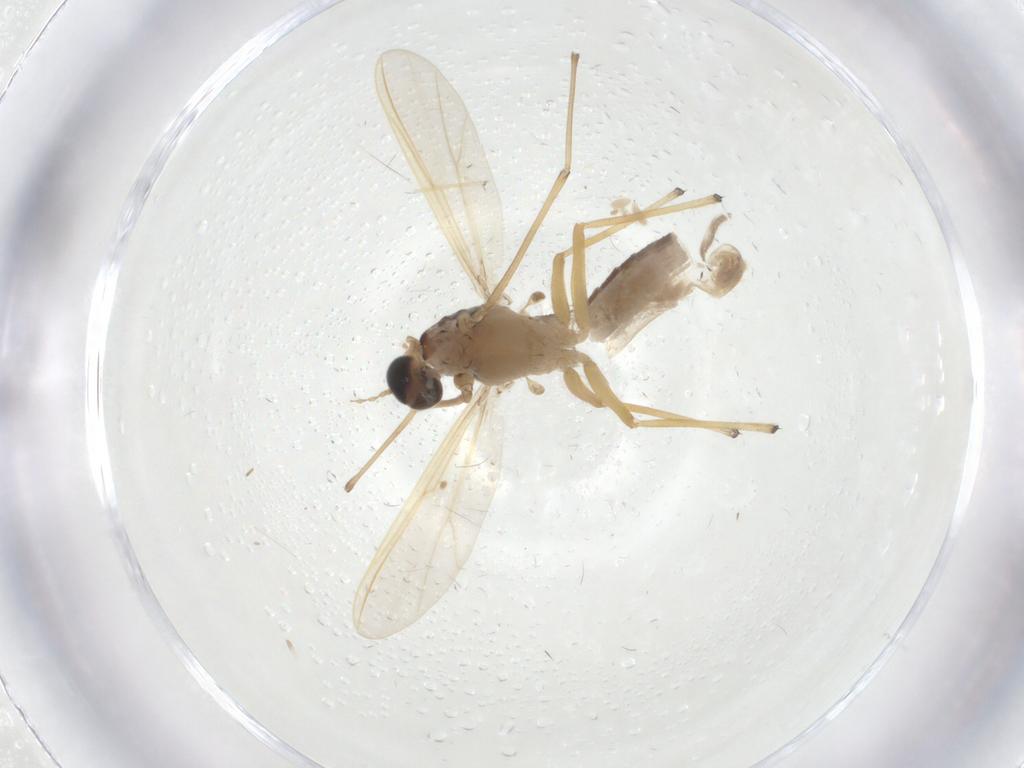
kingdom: Animalia
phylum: Arthropoda
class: Insecta
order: Diptera
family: Chironomidae
